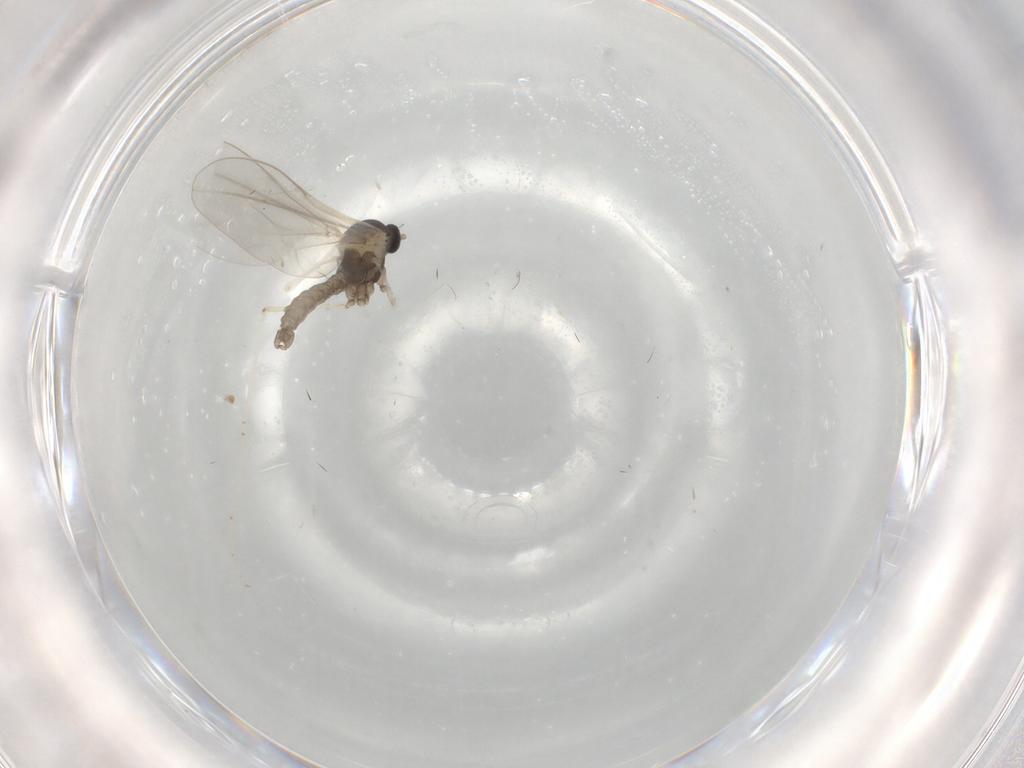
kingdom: Animalia
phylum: Arthropoda
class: Insecta
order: Diptera
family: Cecidomyiidae
